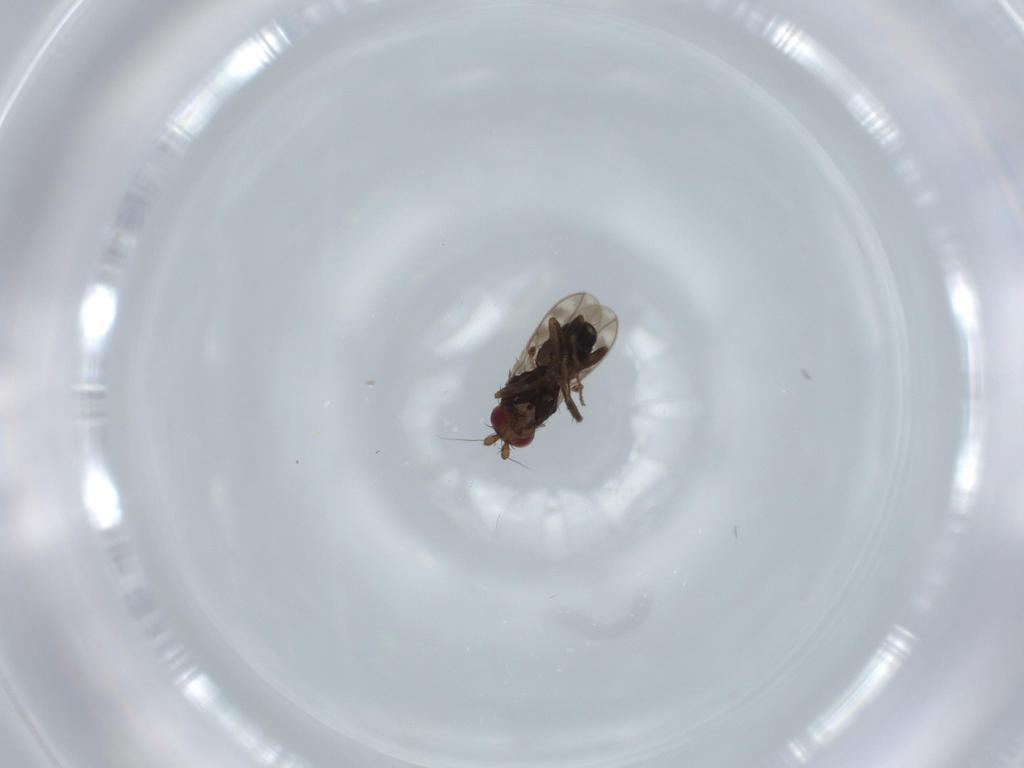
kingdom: Animalia
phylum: Arthropoda
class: Insecta
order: Diptera
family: Sphaeroceridae
